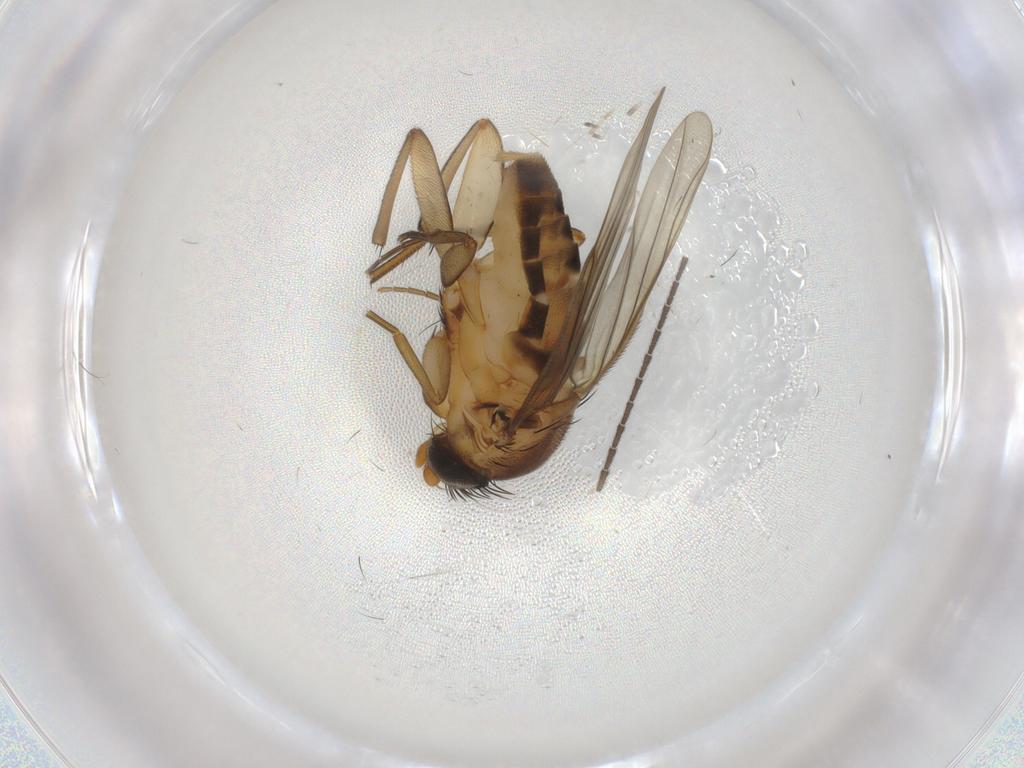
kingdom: Animalia
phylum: Arthropoda
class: Insecta
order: Diptera
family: Phoridae
